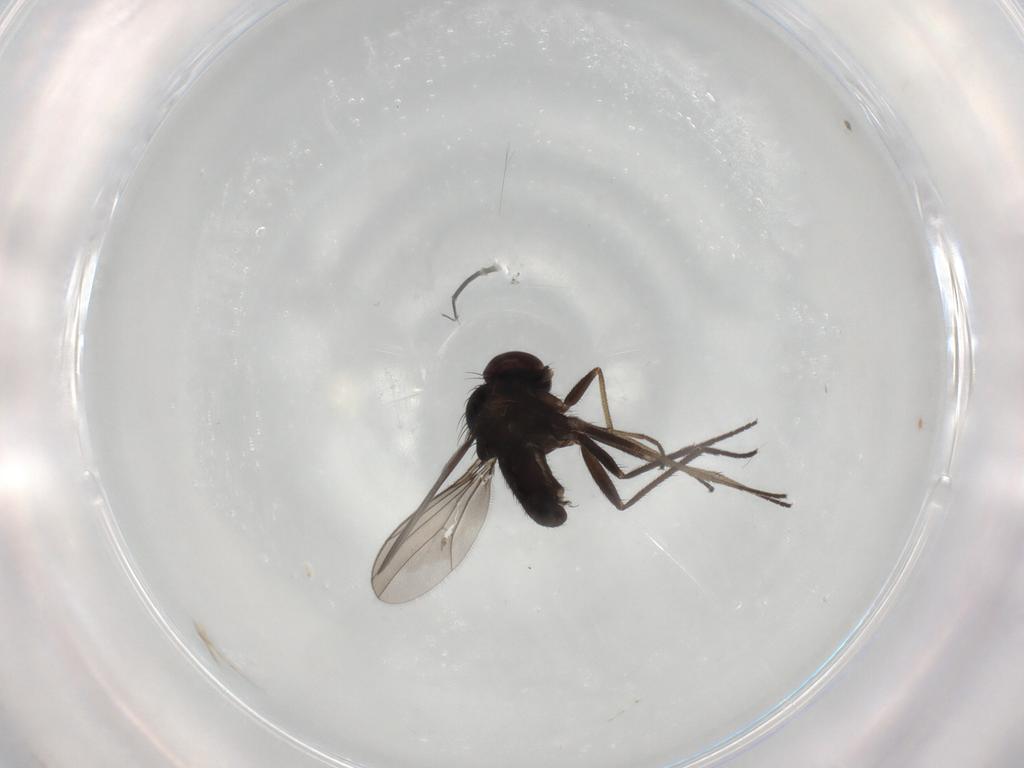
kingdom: Animalia
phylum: Arthropoda
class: Insecta
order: Diptera
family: Dolichopodidae
